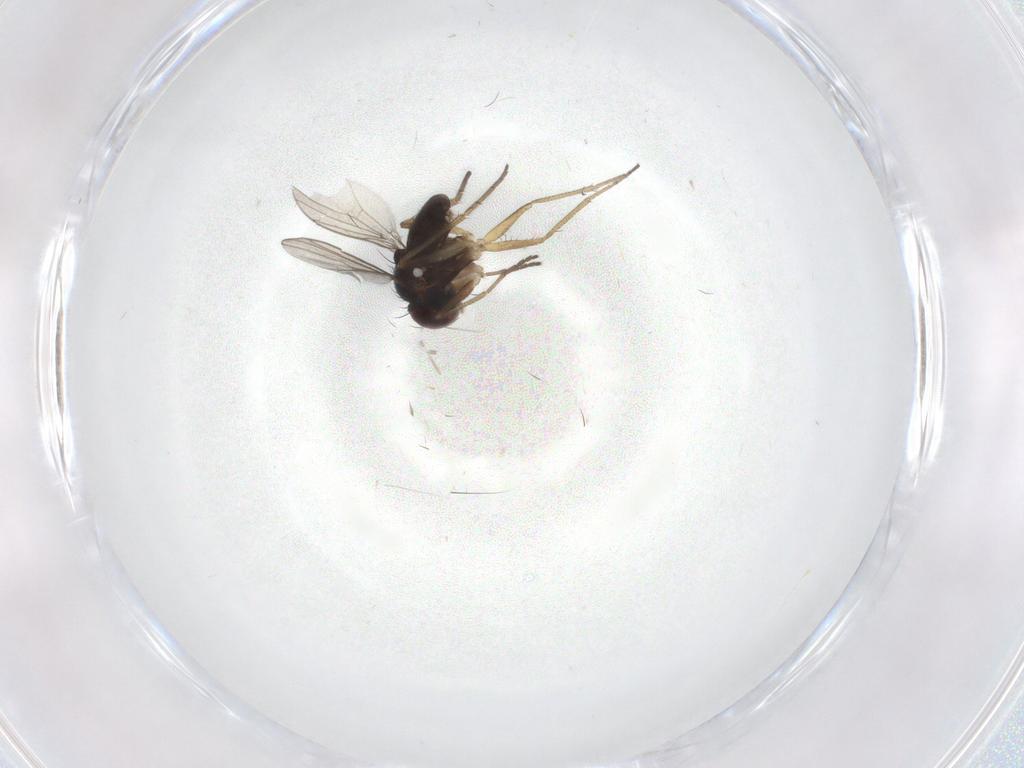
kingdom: Animalia
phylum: Arthropoda
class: Insecta
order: Diptera
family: Dolichopodidae
